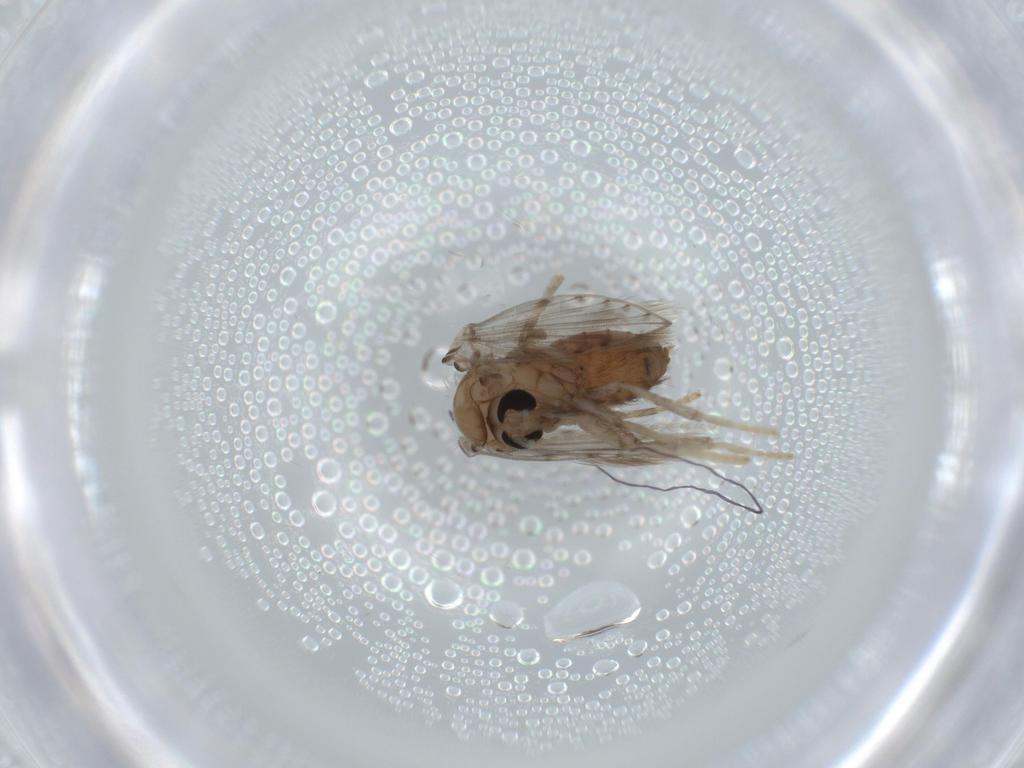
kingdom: Animalia
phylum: Arthropoda
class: Insecta
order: Diptera
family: Psychodidae
